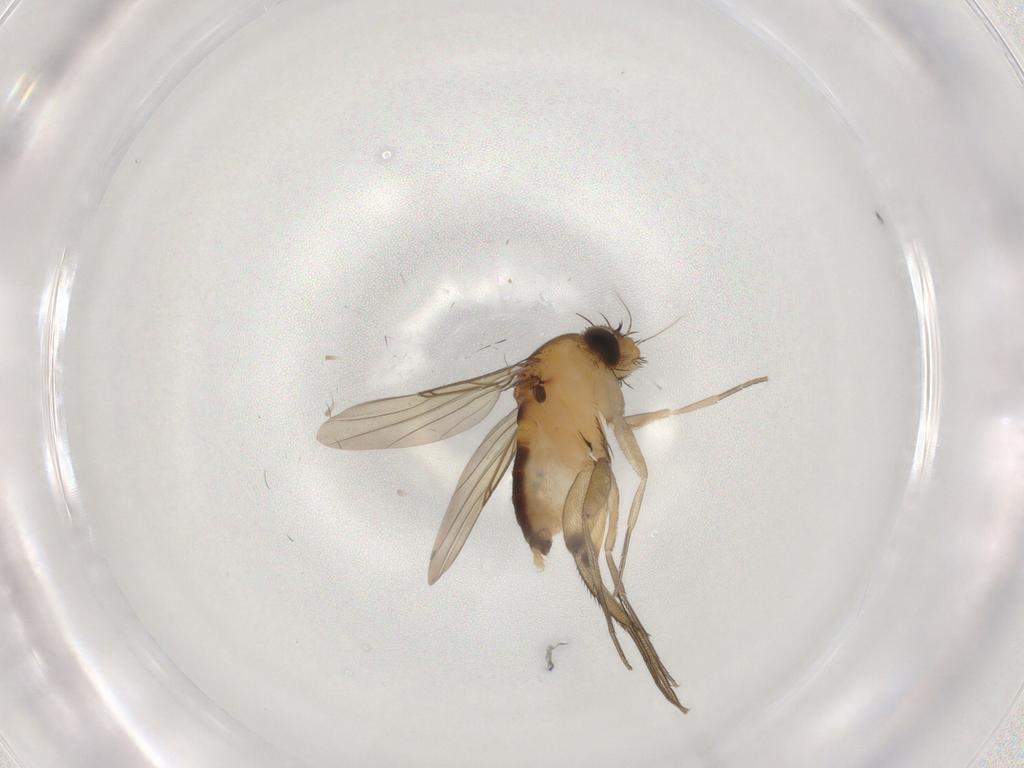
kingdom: Animalia
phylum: Arthropoda
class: Insecta
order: Diptera
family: Phoridae
